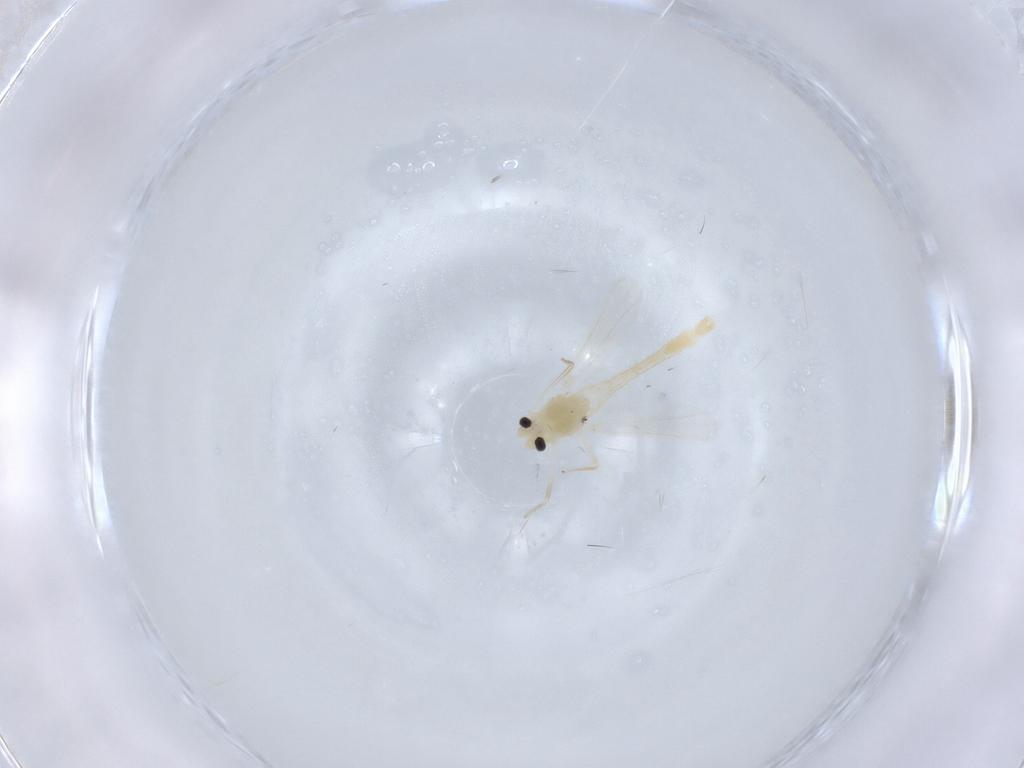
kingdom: Animalia
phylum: Arthropoda
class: Insecta
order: Diptera
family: Chironomidae
